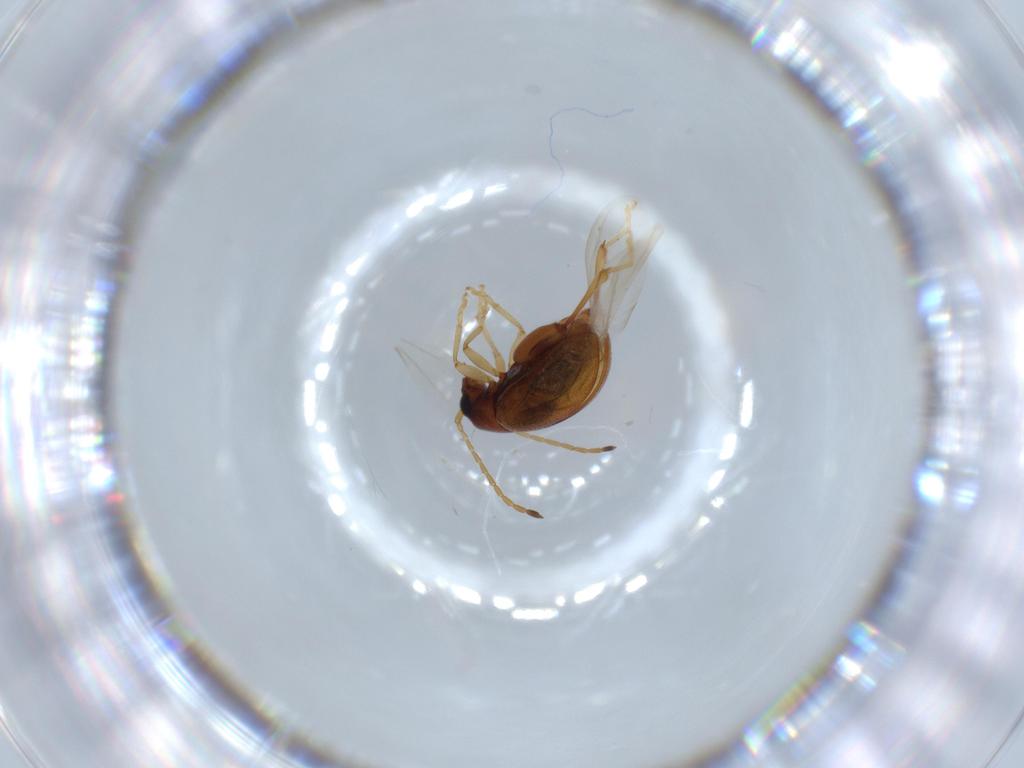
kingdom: Animalia
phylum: Arthropoda
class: Insecta
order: Coleoptera
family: Chrysomelidae
